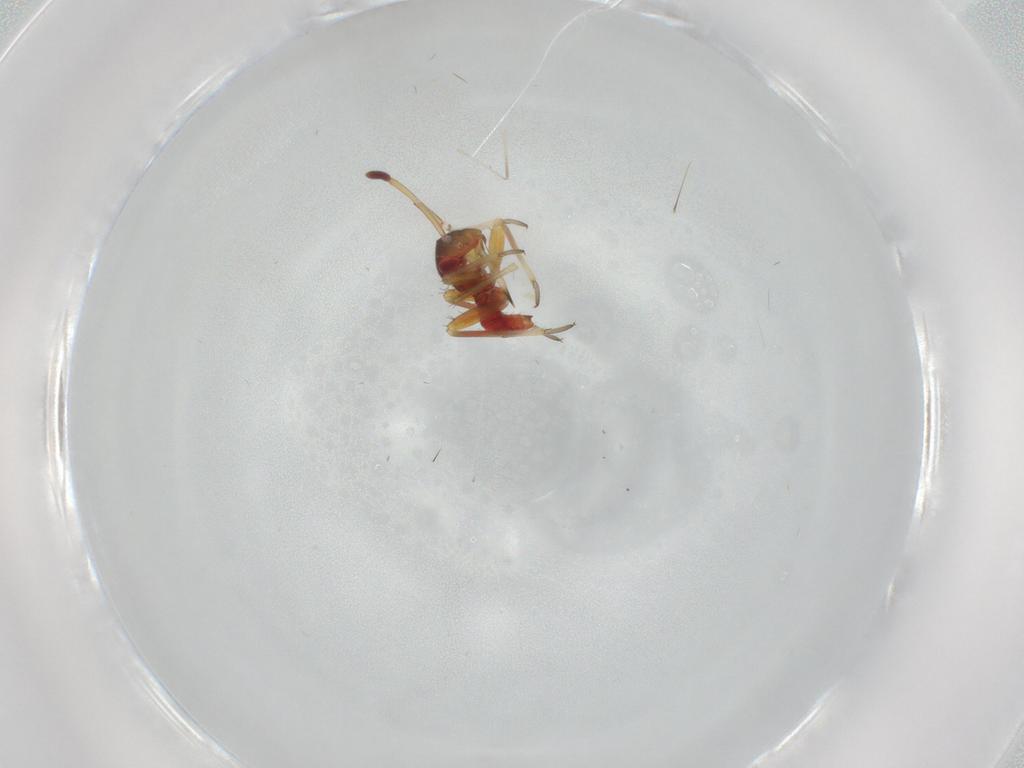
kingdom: Animalia
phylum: Arthropoda
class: Insecta
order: Hemiptera
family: Miridae
